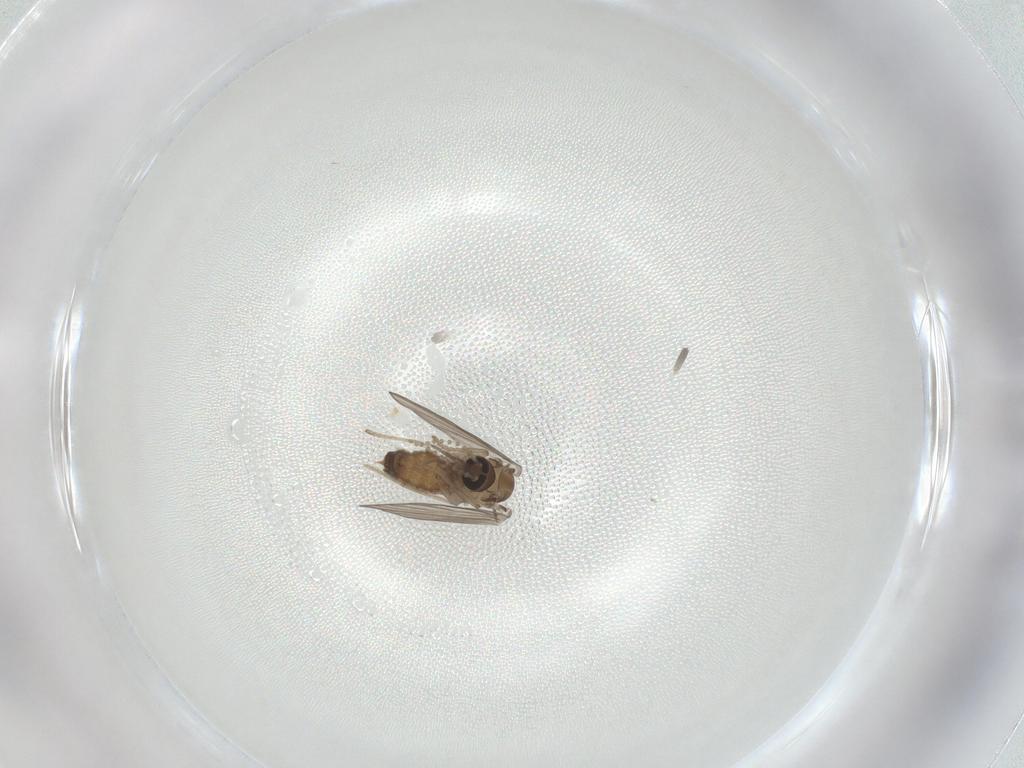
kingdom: Animalia
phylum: Arthropoda
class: Insecta
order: Diptera
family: Psychodidae
